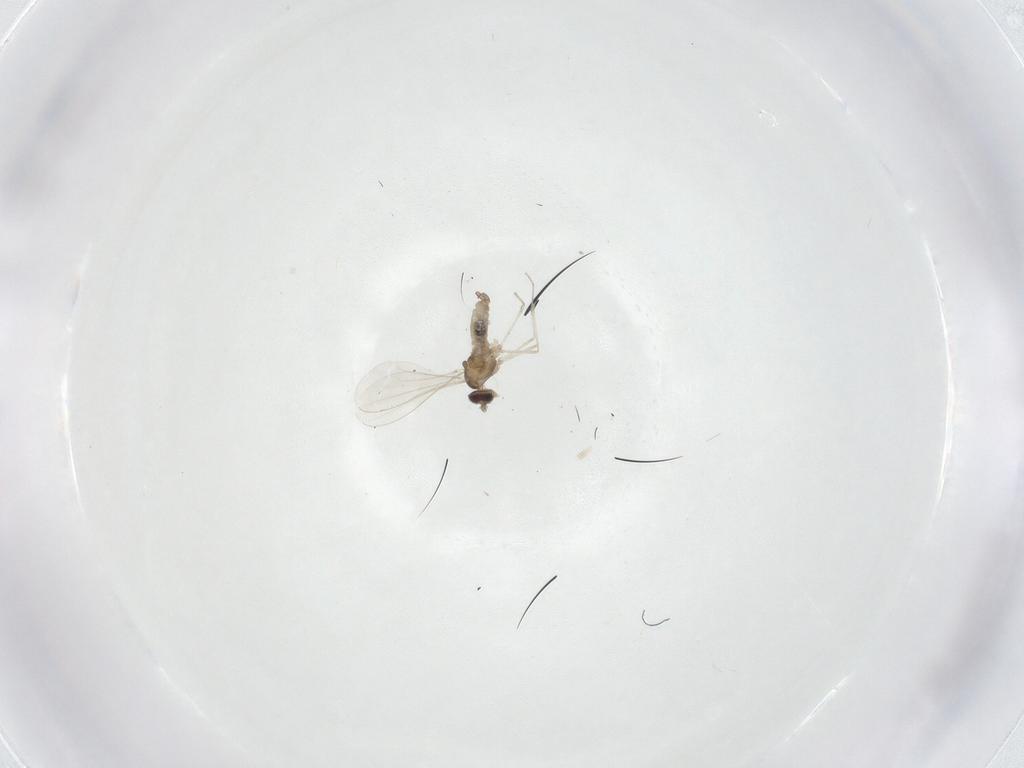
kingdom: Animalia
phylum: Arthropoda
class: Insecta
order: Diptera
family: Cecidomyiidae
